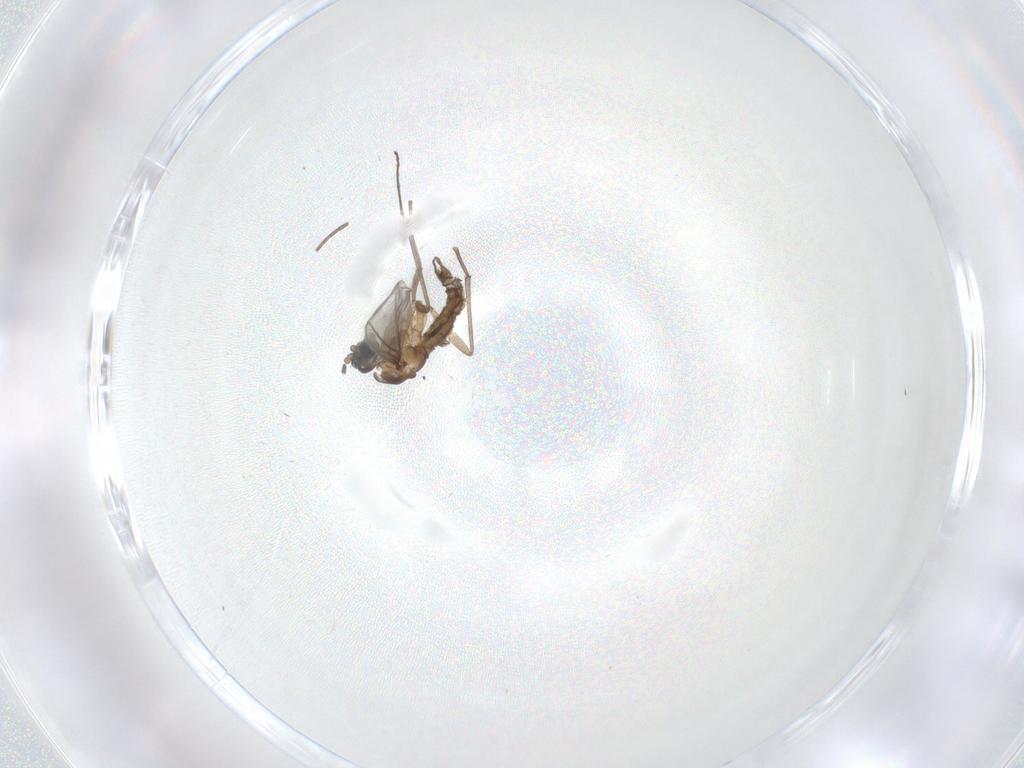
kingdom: Animalia
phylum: Arthropoda
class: Insecta
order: Diptera
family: Sciaridae
